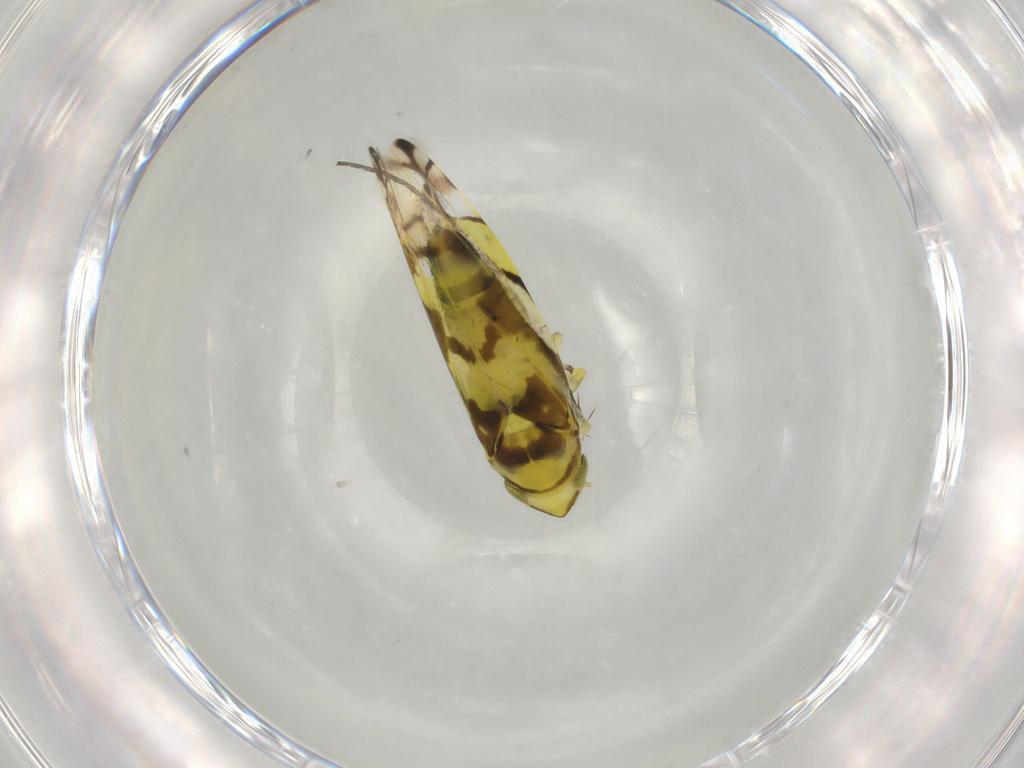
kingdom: Animalia
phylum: Arthropoda
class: Insecta
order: Hemiptera
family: Cicadellidae
